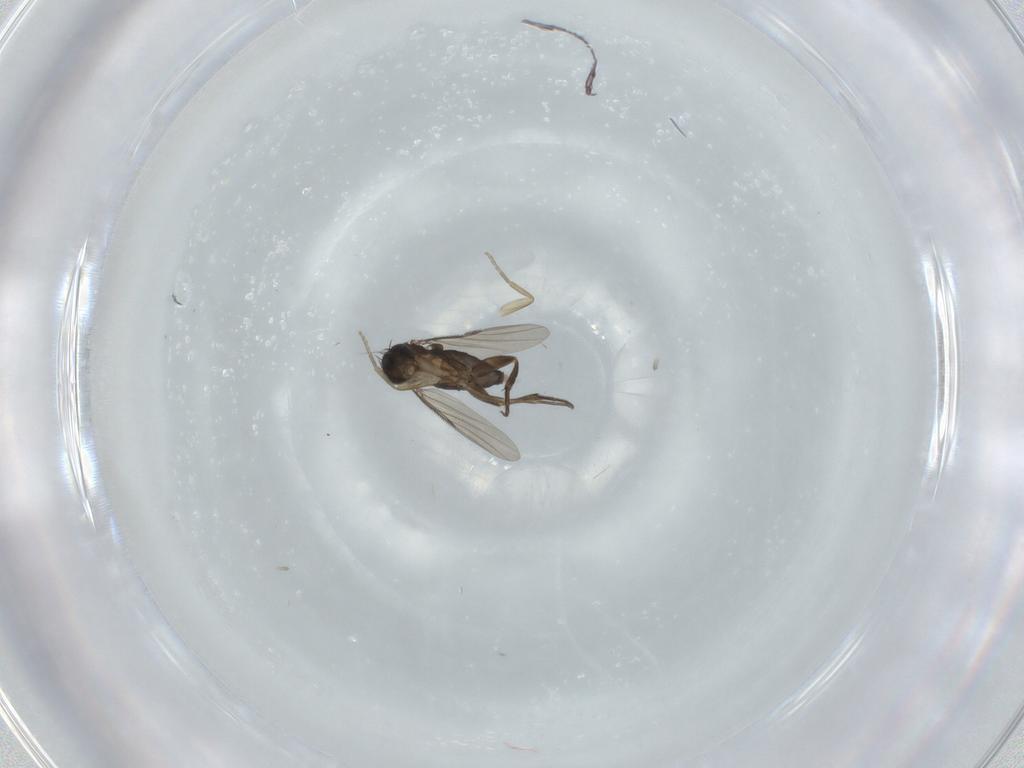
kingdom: Animalia
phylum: Arthropoda
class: Insecta
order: Diptera
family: Phoridae
